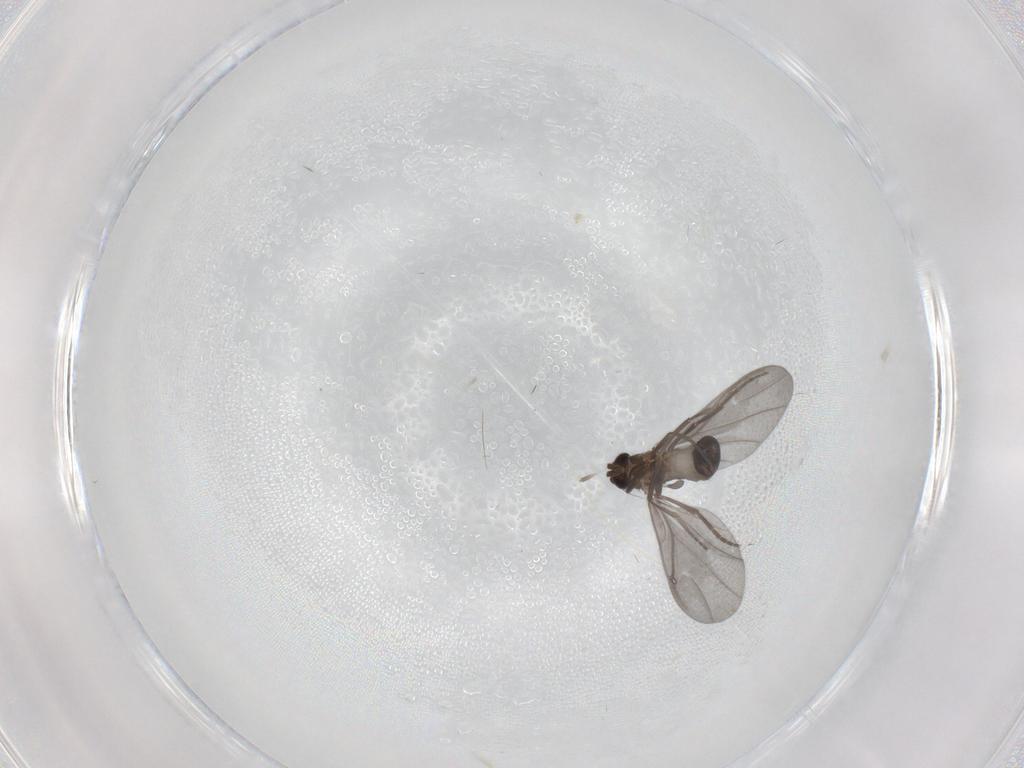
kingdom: Animalia
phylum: Arthropoda
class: Insecta
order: Diptera
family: Phoridae
